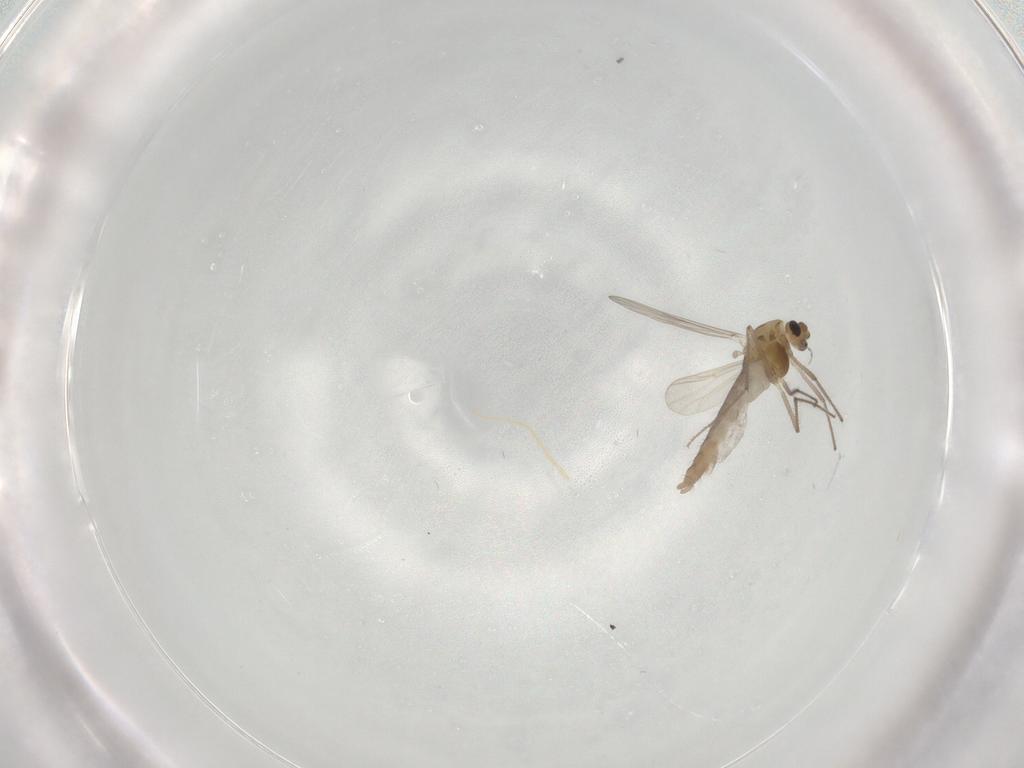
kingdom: Animalia
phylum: Arthropoda
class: Insecta
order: Diptera
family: Chironomidae
